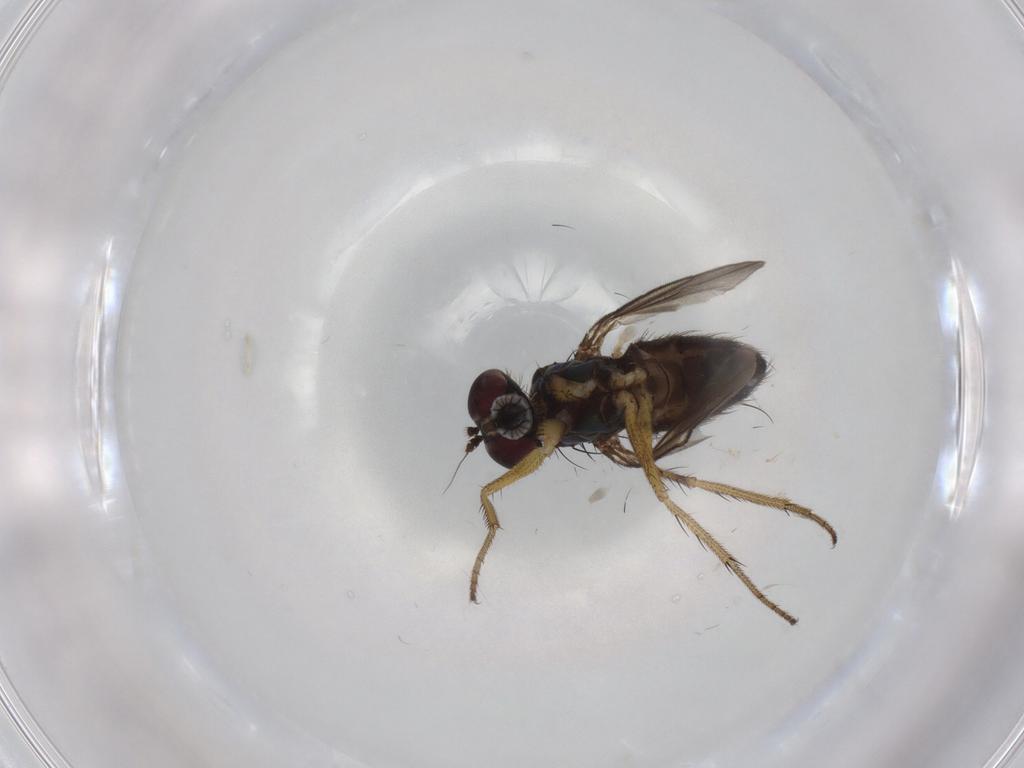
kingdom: Animalia
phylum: Arthropoda
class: Insecta
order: Diptera
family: Dolichopodidae
